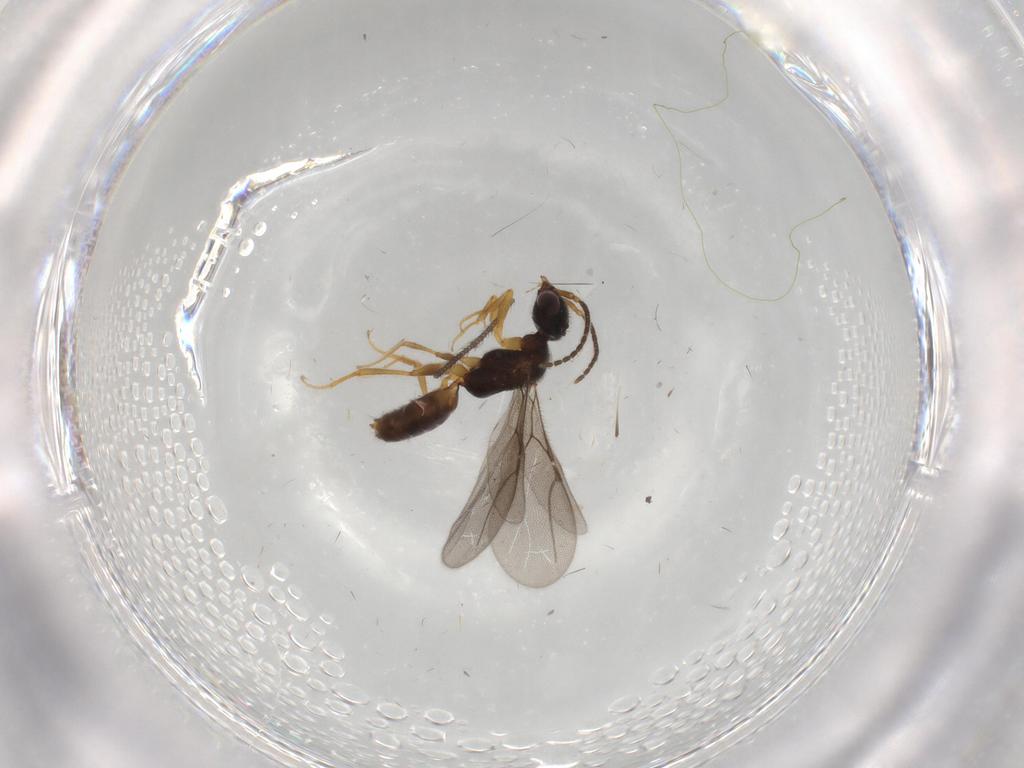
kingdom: Animalia
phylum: Arthropoda
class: Insecta
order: Hymenoptera
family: Bethylidae
